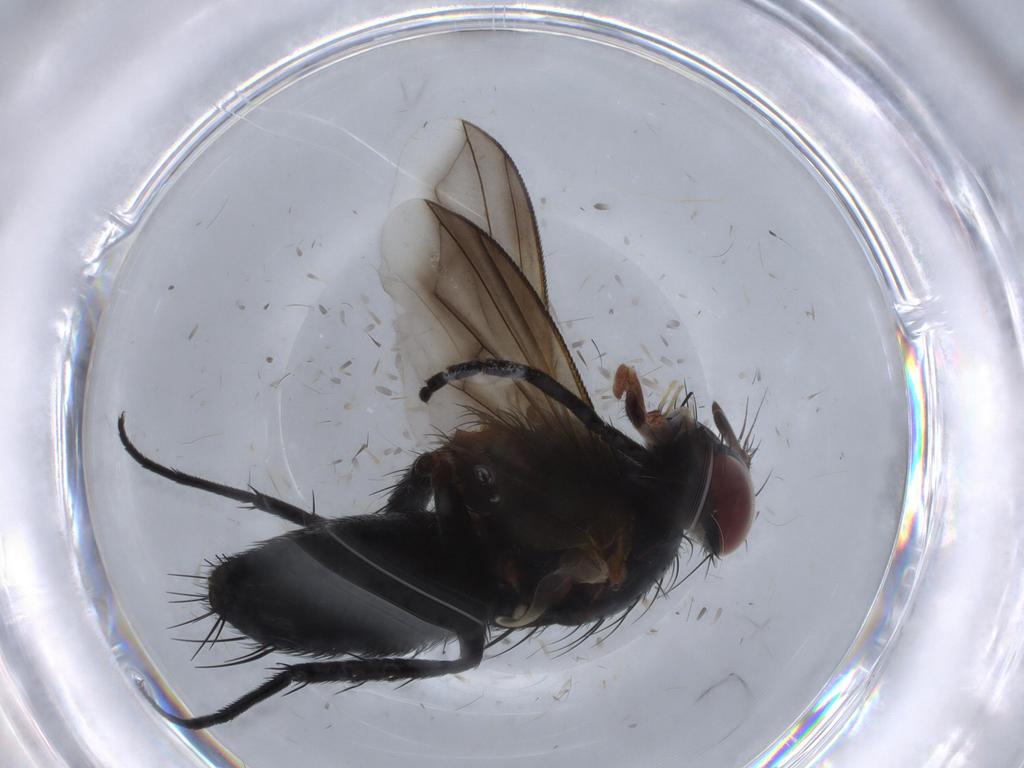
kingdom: Animalia
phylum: Arthropoda
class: Insecta
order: Diptera
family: Tachinidae
